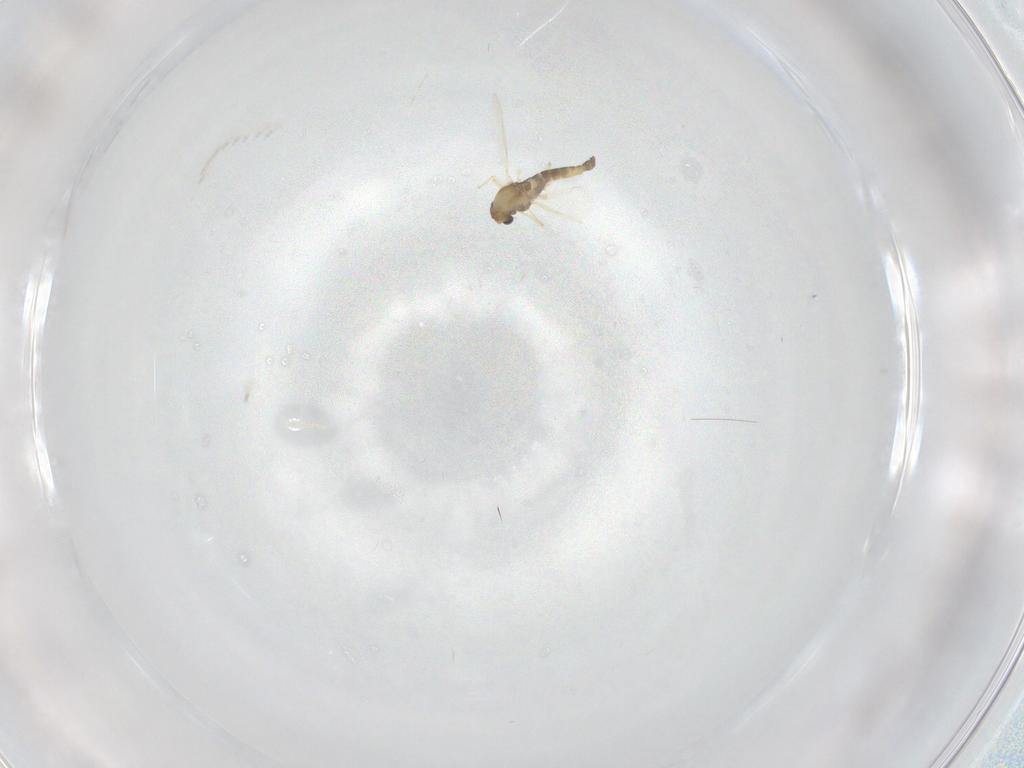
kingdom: Animalia
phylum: Arthropoda
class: Insecta
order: Diptera
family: Cecidomyiidae
